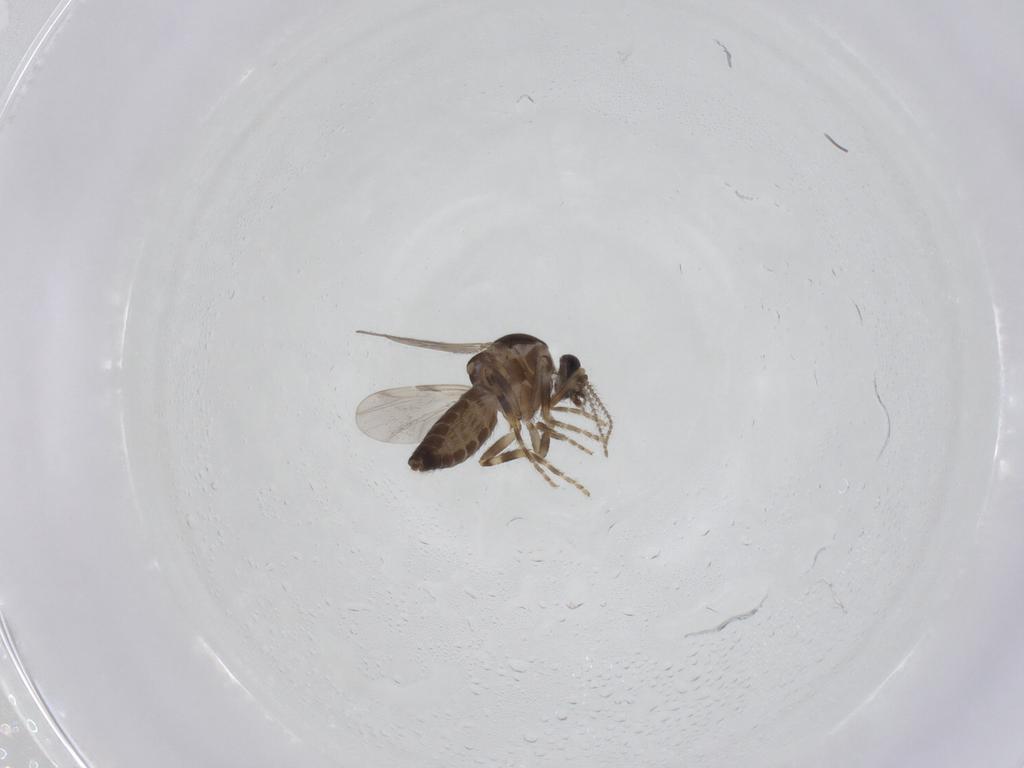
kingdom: Animalia
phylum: Arthropoda
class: Insecta
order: Diptera
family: Ceratopogonidae
